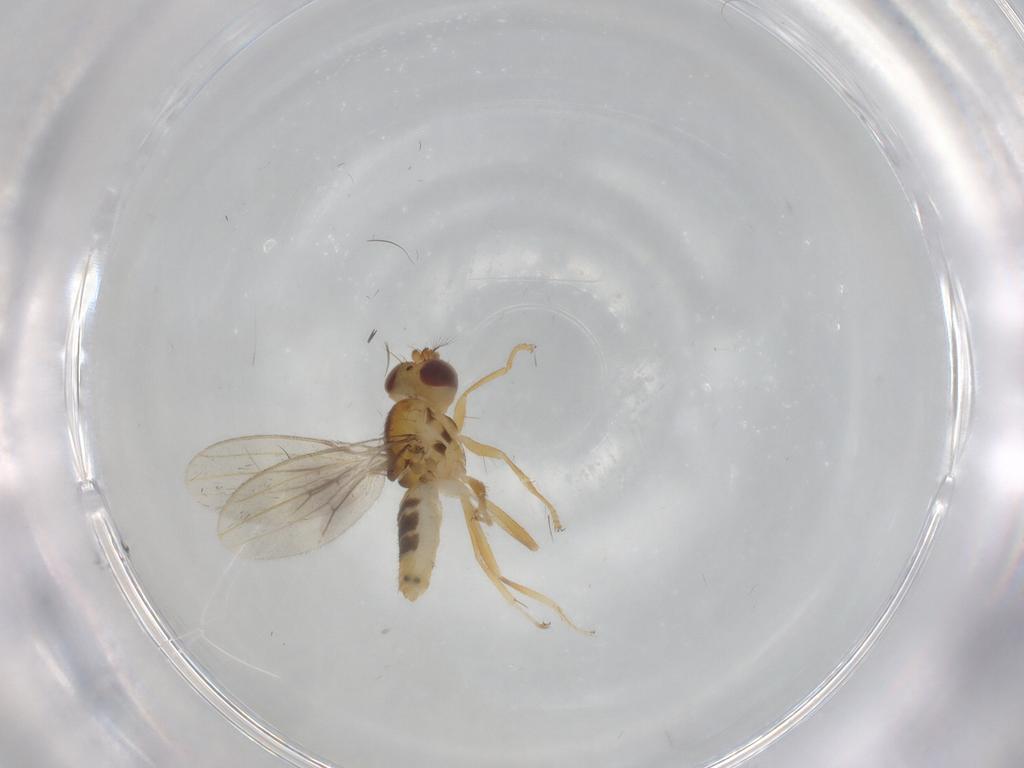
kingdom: Animalia
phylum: Arthropoda
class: Insecta
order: Diptera
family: Periscelididae
